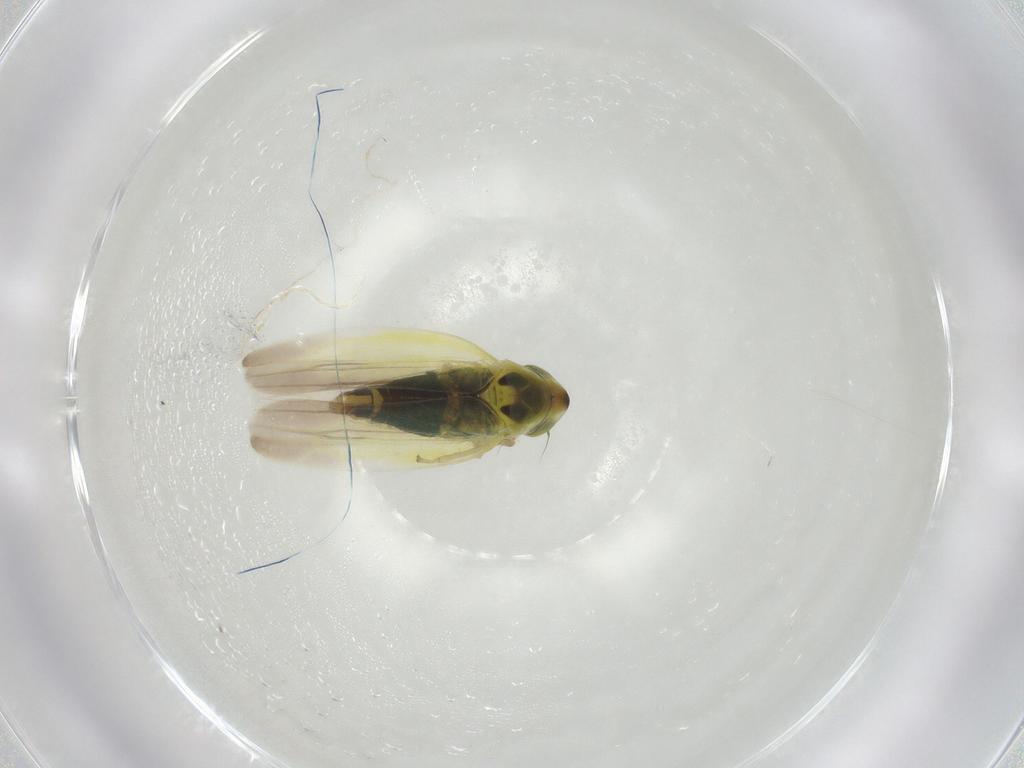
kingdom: Animalia
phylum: Arthropoda
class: Insecta
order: Hemiptera
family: Cicadellidae
